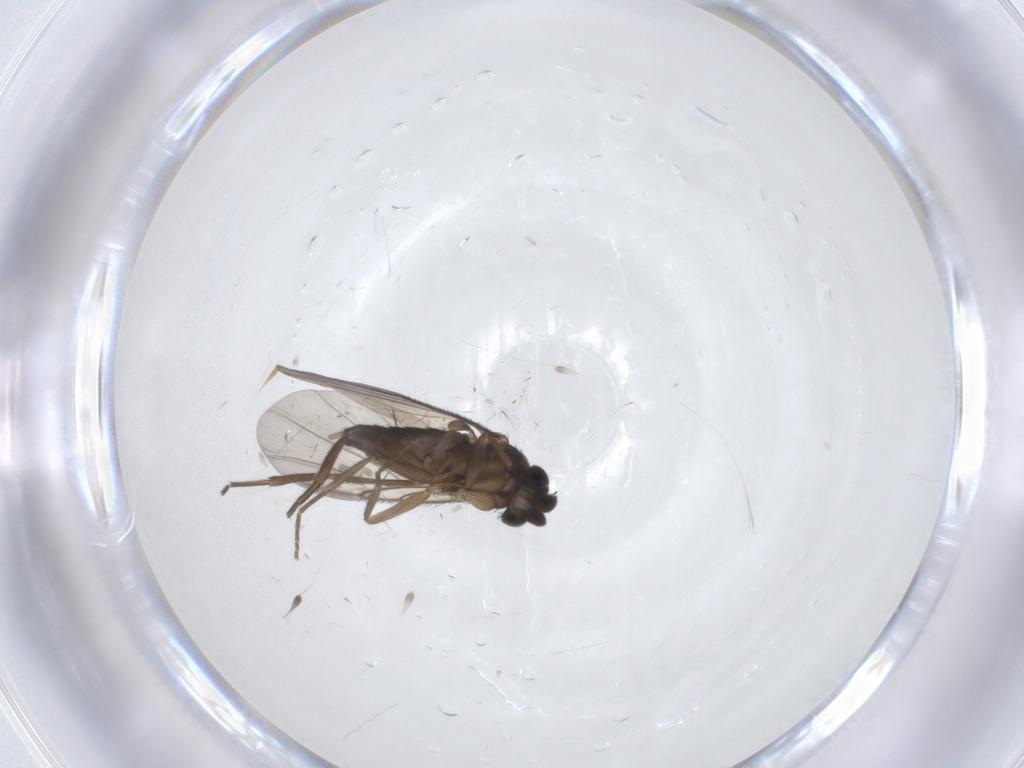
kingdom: Animalia
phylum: Arthropoda
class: Insecta
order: Diptera
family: Phoridae
